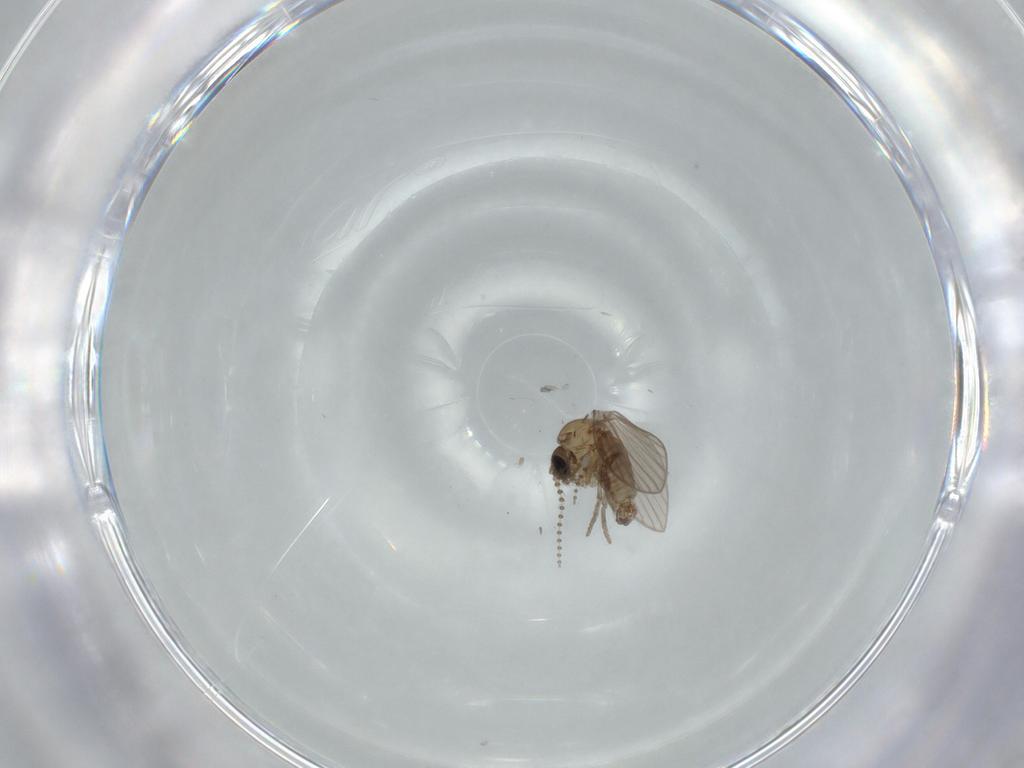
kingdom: Animalia
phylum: Arthropoda
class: Insecta
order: Diptera
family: Psychodidae
